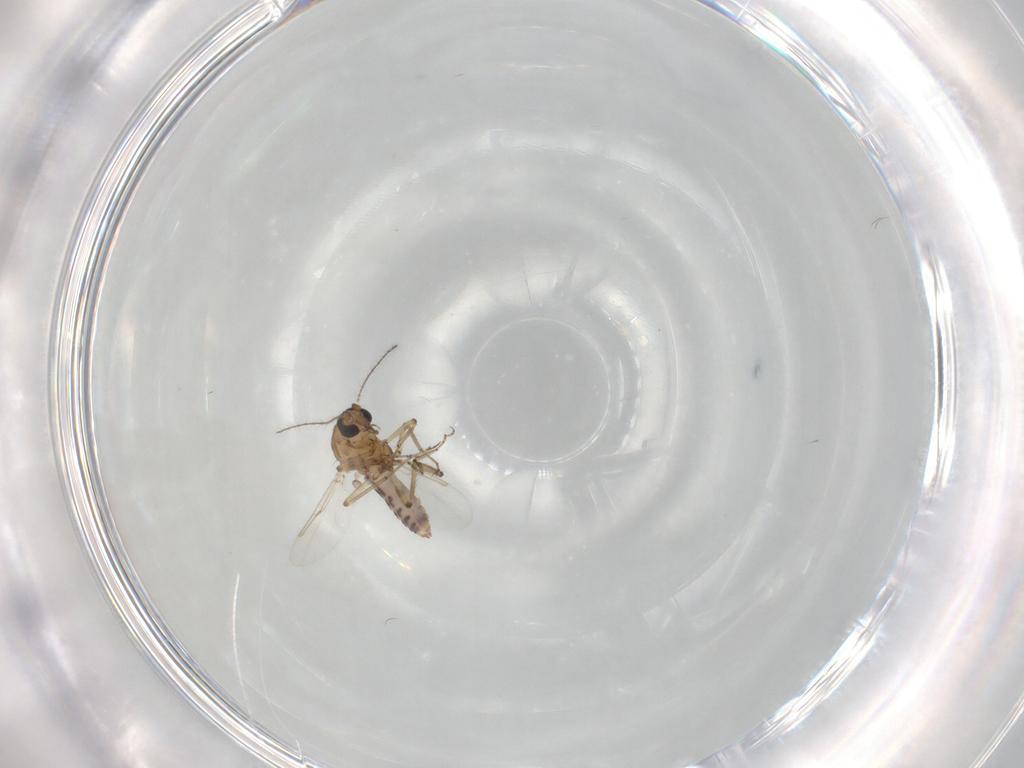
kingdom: Animalia
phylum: Arthropoda
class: Insecta
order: Diptera
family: Ceratopogonidae
